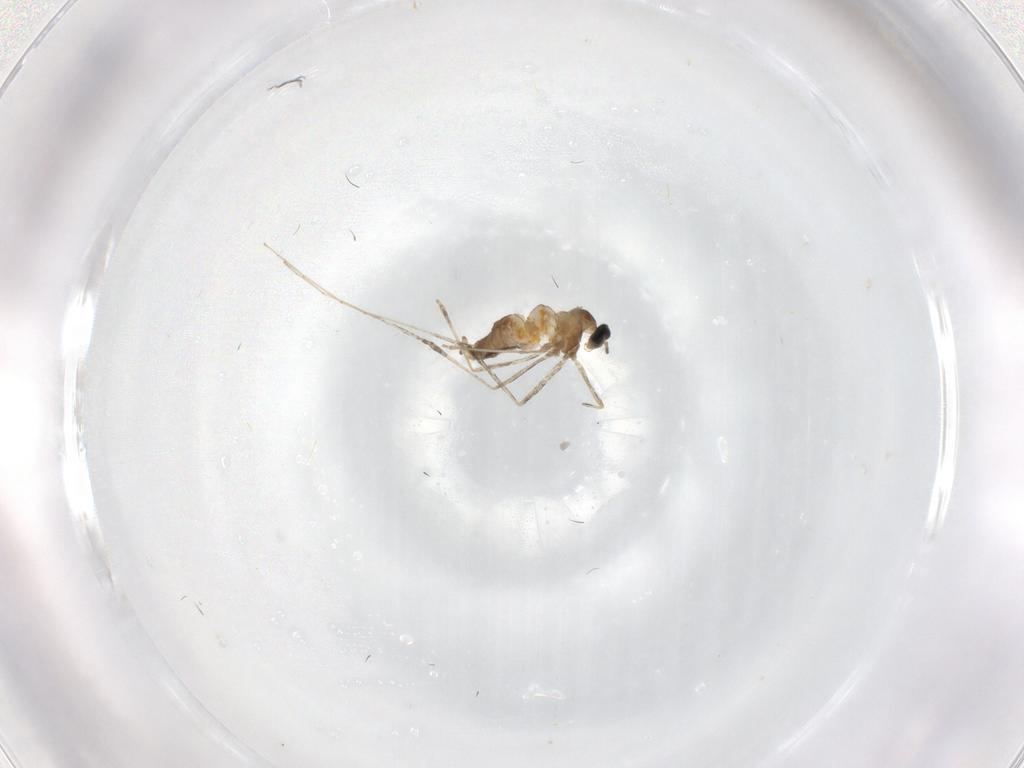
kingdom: Animalia
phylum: Arthropoda
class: Insecta
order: Diptera
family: Cecidomyiidae
